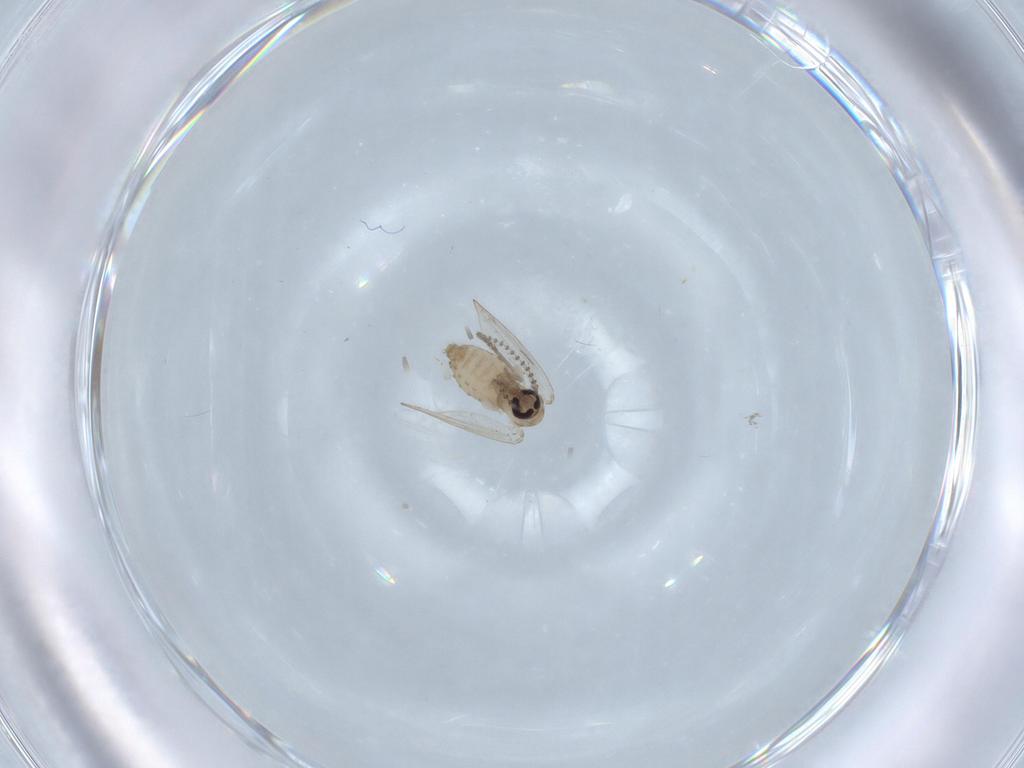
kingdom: Animalia
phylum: Arthropoda
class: Insecta
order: Diptera
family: Psychodidae
